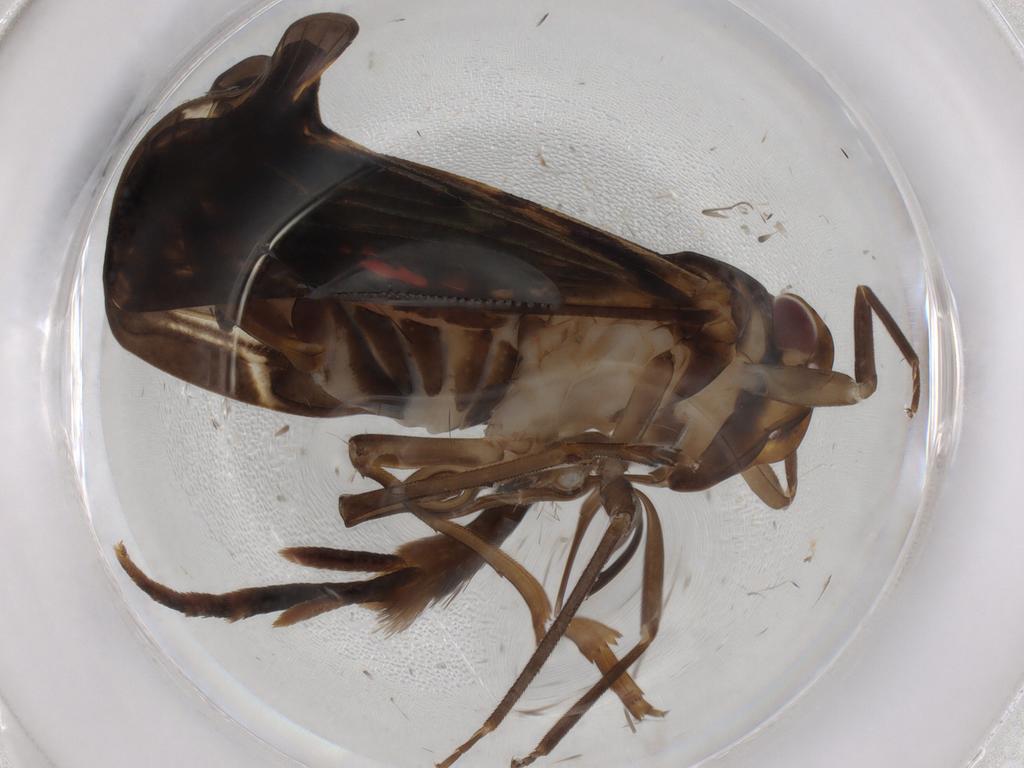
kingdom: Animalia
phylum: Arthropoda
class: Insecta
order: Hemiptera
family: Cixiidae
